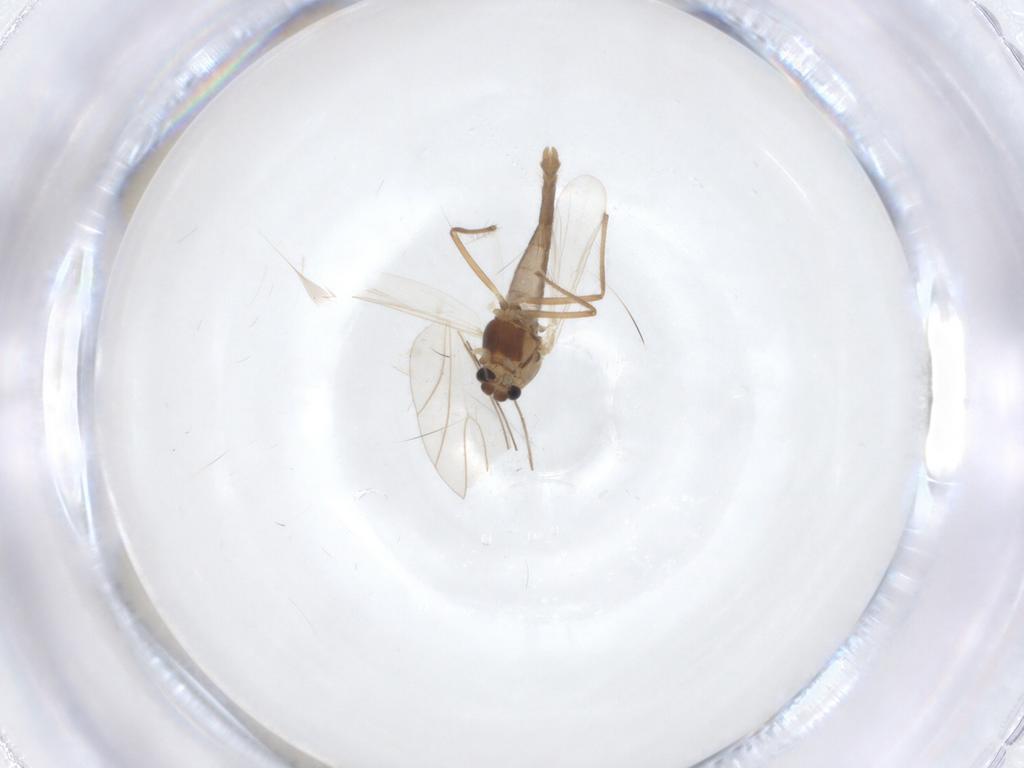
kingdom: Animalia
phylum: Arthropoda
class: Insecta
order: Diptera
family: Chironomidae
